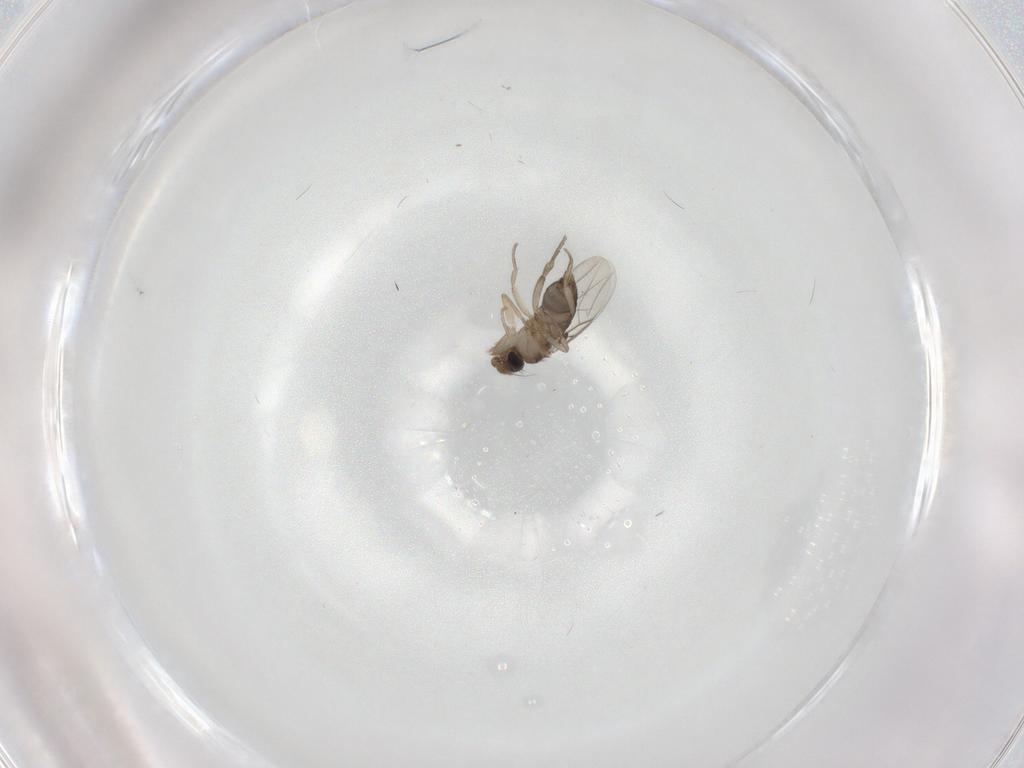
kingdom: Animalia
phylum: Arthropoda
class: Insecta
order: Diptera
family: Phoridae
